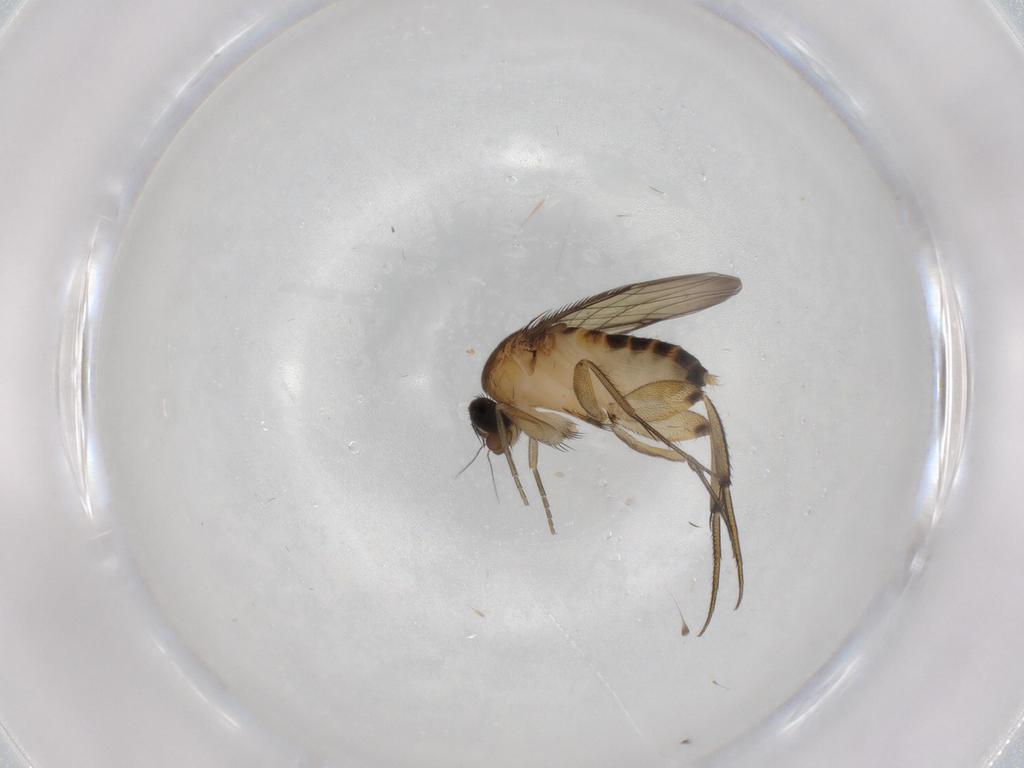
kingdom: Animalia
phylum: Arthropoda
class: Insecta
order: Diptera
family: Phoridae
